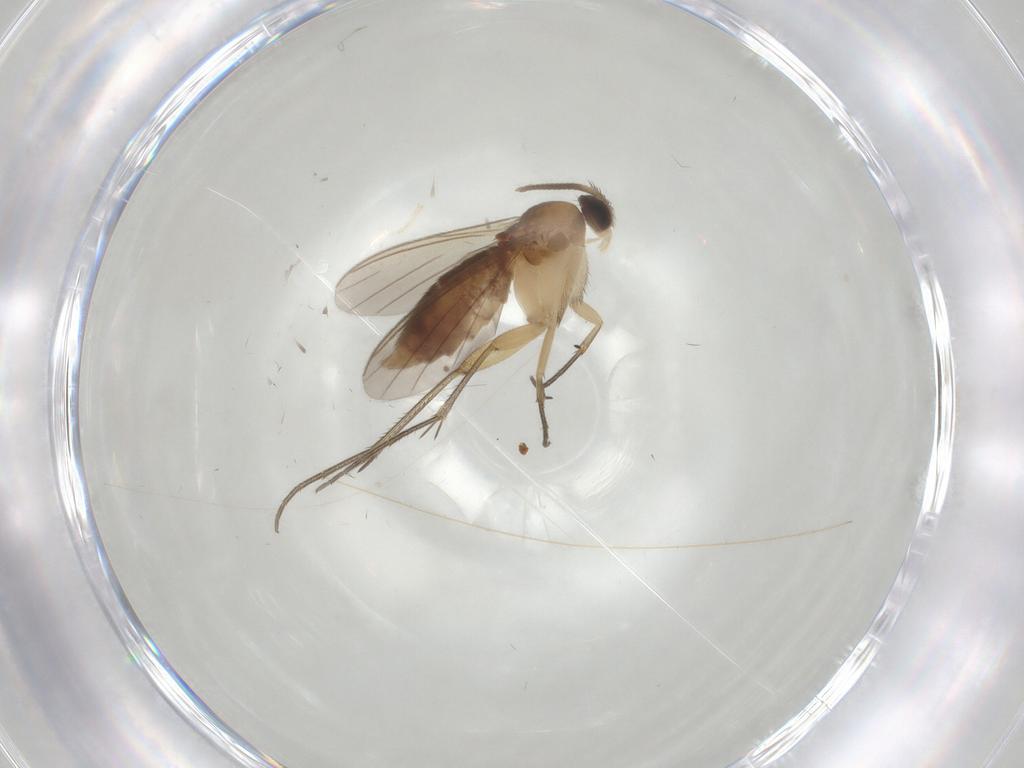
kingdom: Animalia
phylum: Arthropoda
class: Insecta
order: Diptera
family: Mycetophilidae
